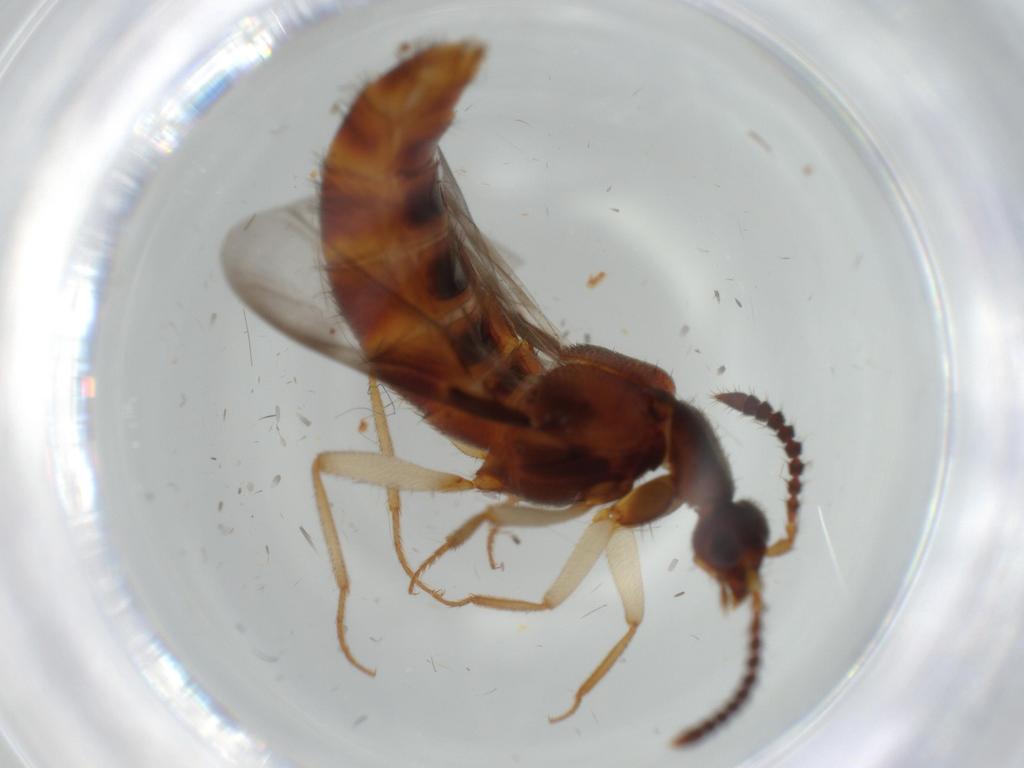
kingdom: Animalia
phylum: Arthropoda
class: Insecta
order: Coleoptera
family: Staphylinidae
